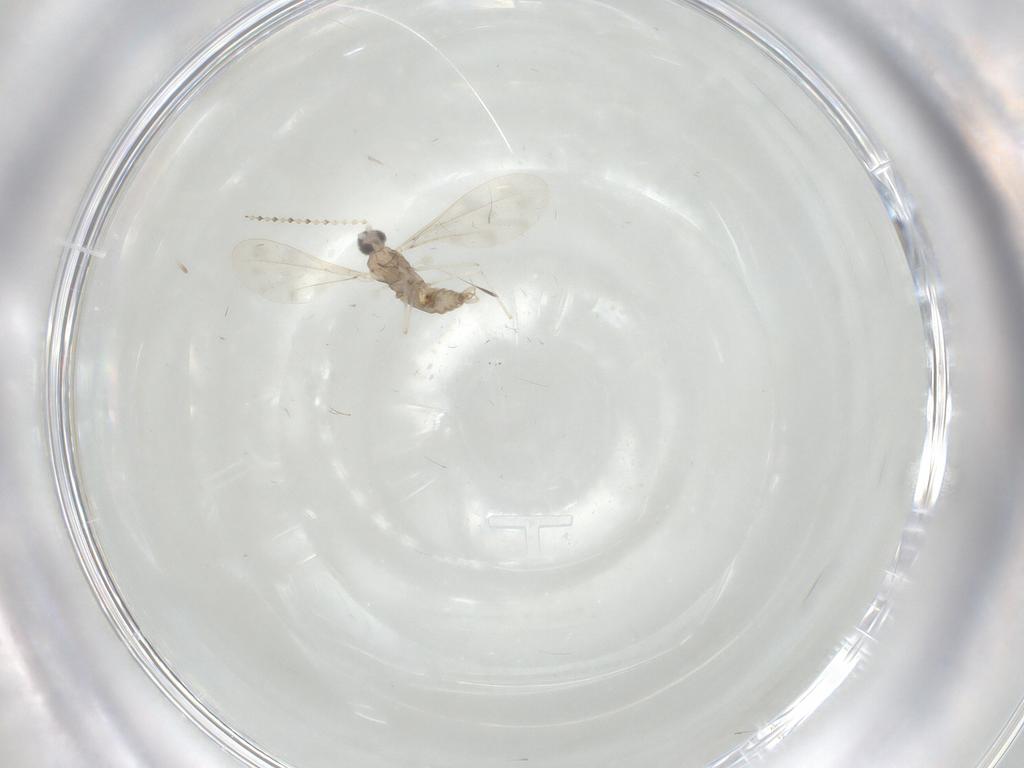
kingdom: Animalia
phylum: Arthropoda
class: Insecta
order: Diptera
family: Cecidomyiidae
